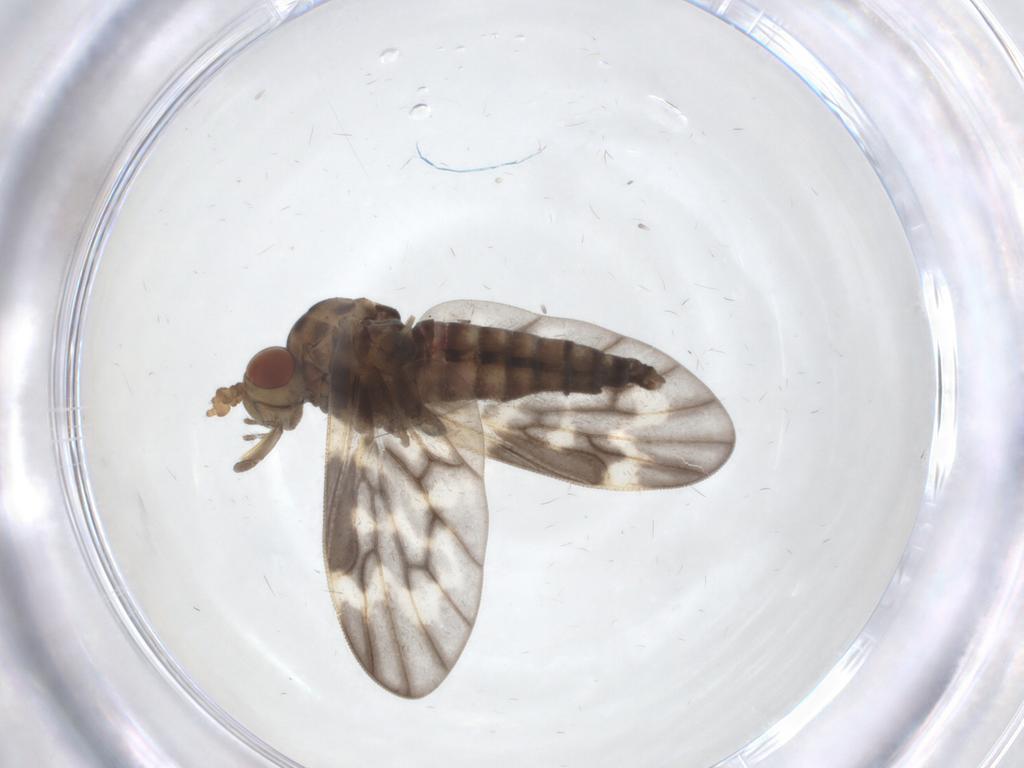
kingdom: Animalia
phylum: Arthropoda
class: Insecta
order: Diptera
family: Austroleptidae
